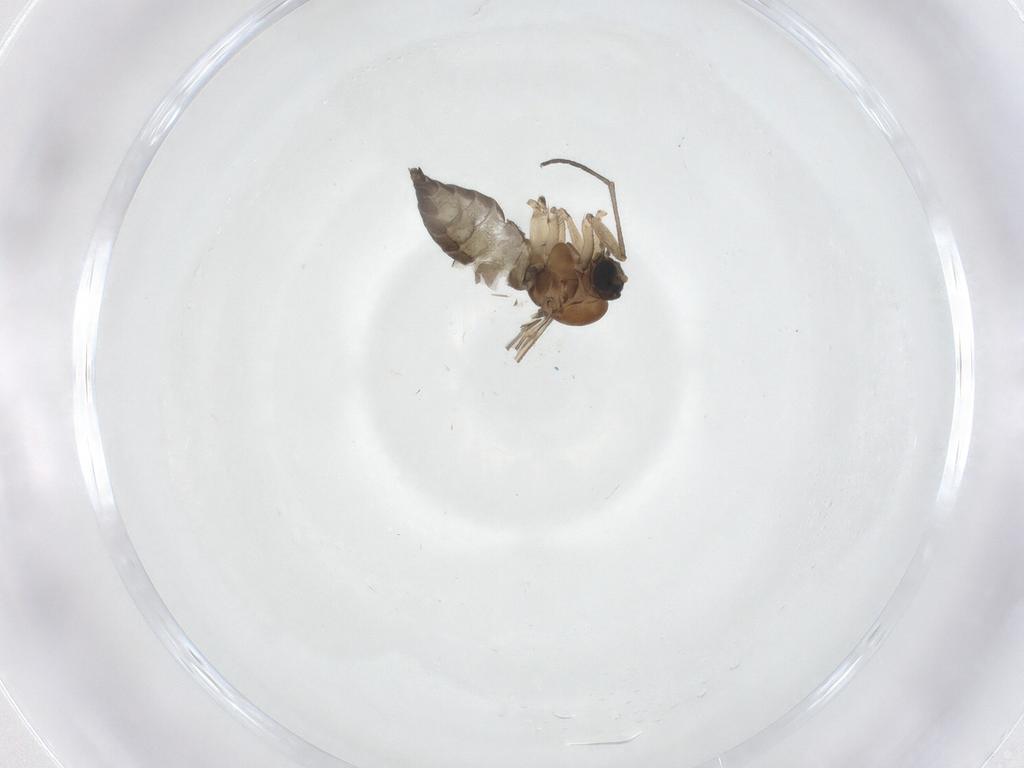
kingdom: Animalia
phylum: Arthropoda
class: Insecta
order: Diptera
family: Sciaridae
